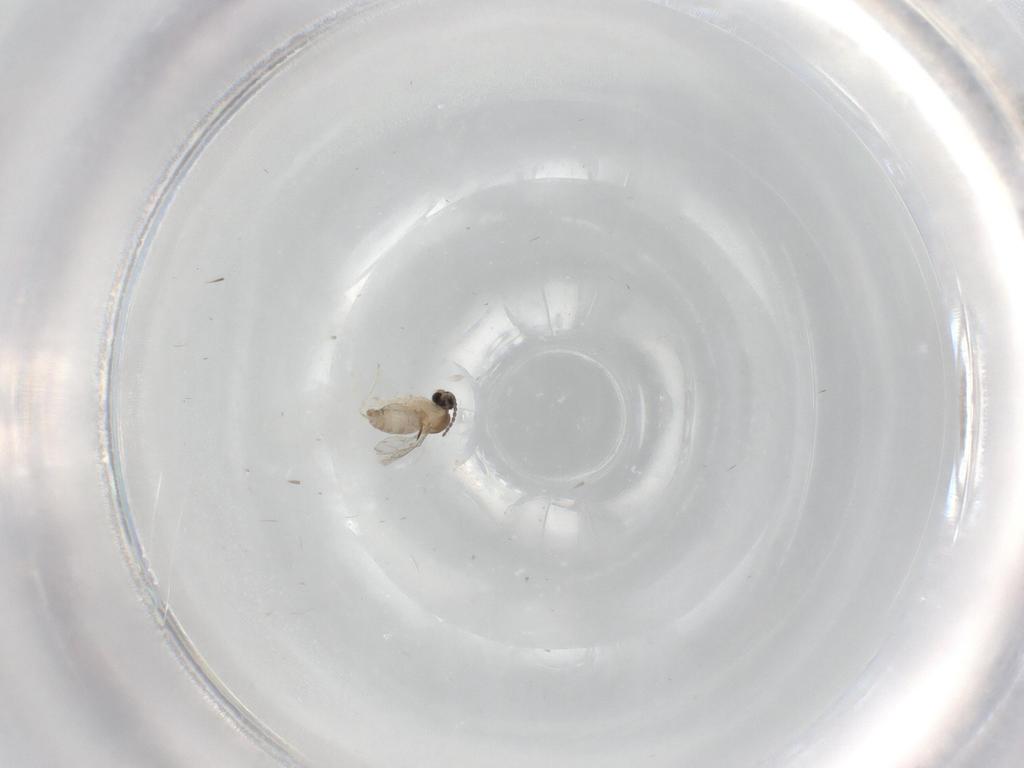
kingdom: Animalia
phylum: Arthropoda
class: Insecta
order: Diptera
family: Cecidomyiidae
